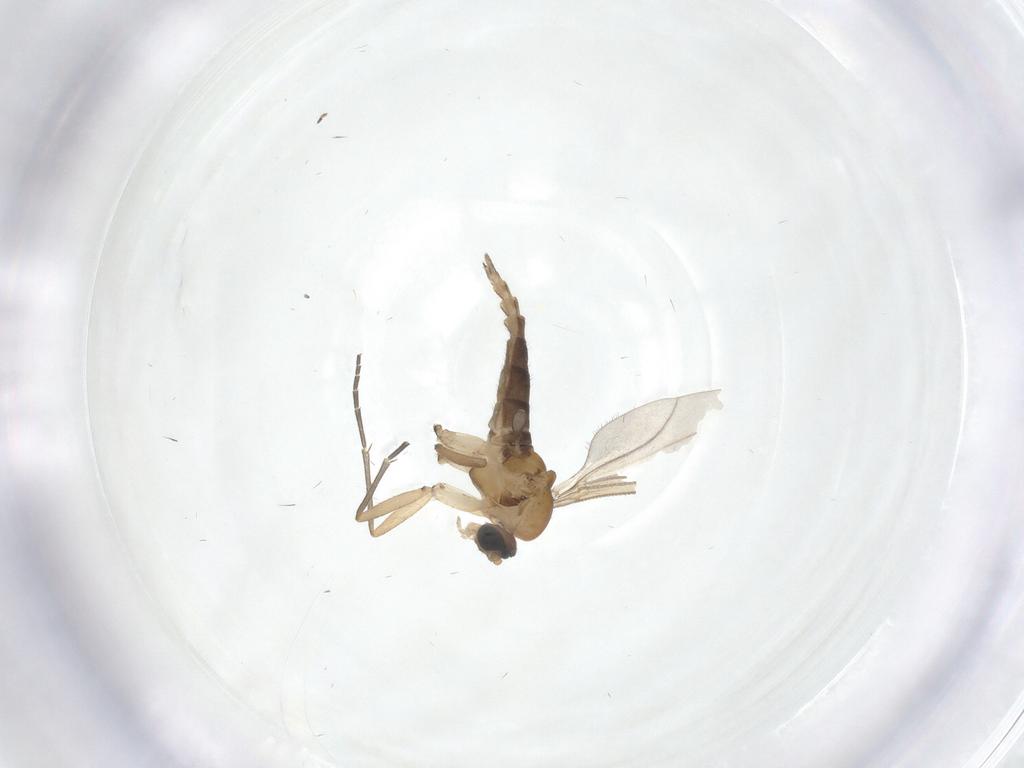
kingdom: Animalia
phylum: Arthropoda
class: Insecta
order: Diptera
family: Sciaridae
